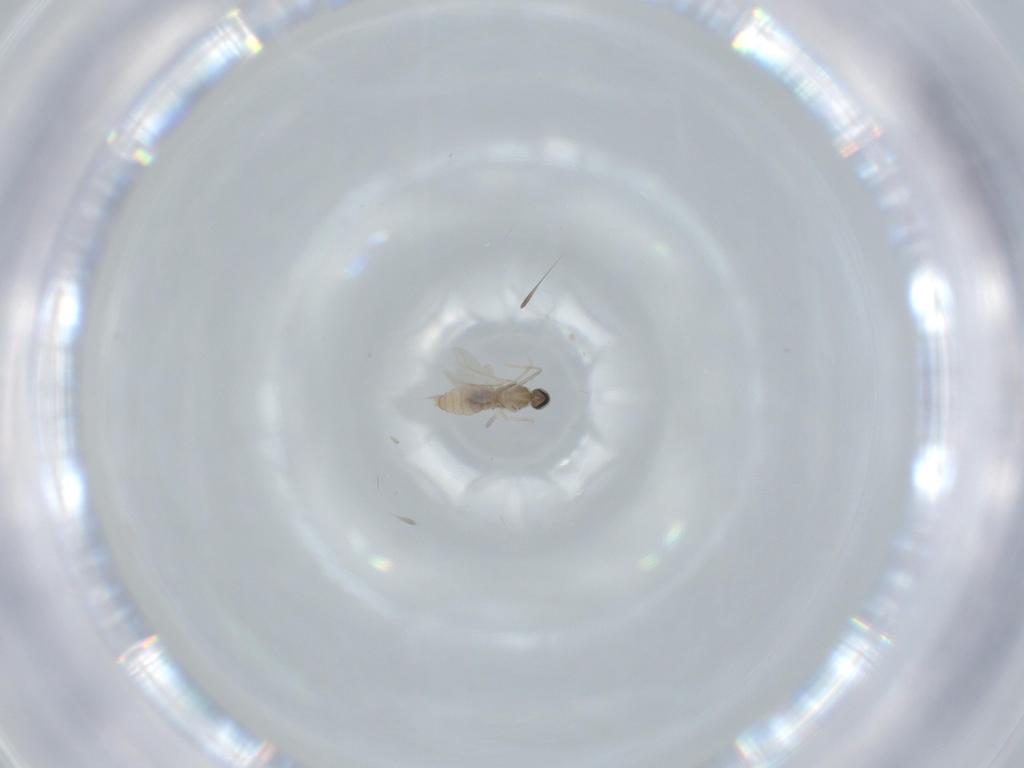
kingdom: Animalia
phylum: Arthropoda
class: Insecta
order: Diptera
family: Cecidomyiidae
